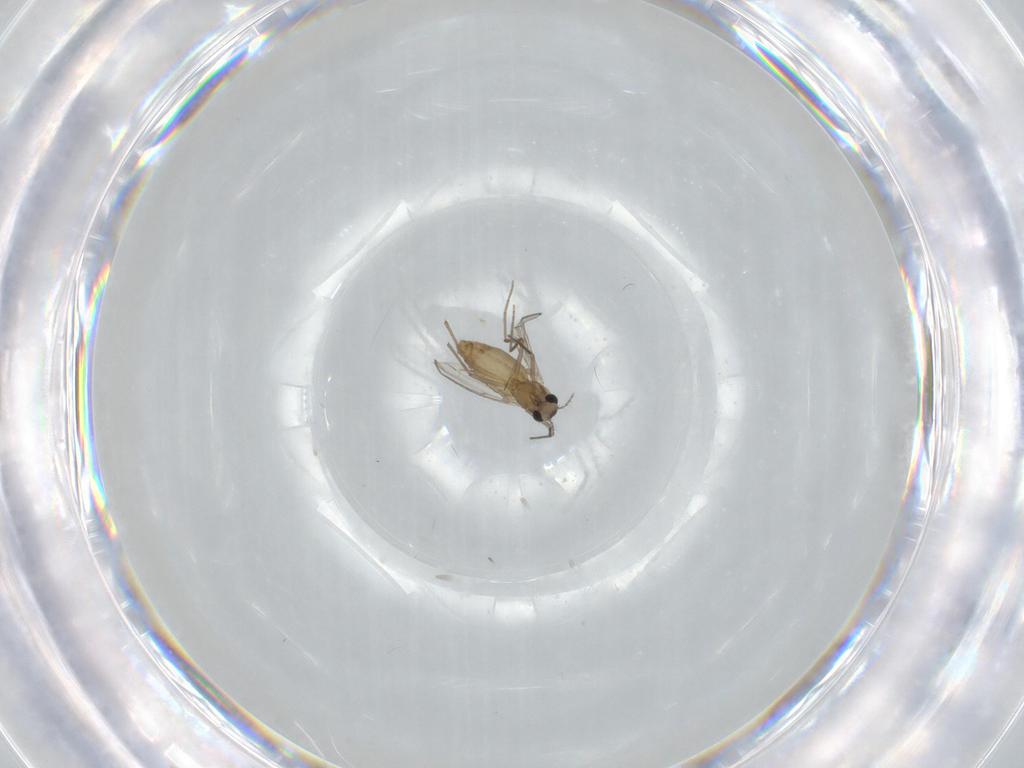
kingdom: Animalia
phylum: Arthropoda
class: Insecta
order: Diptera
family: Chironomidae
